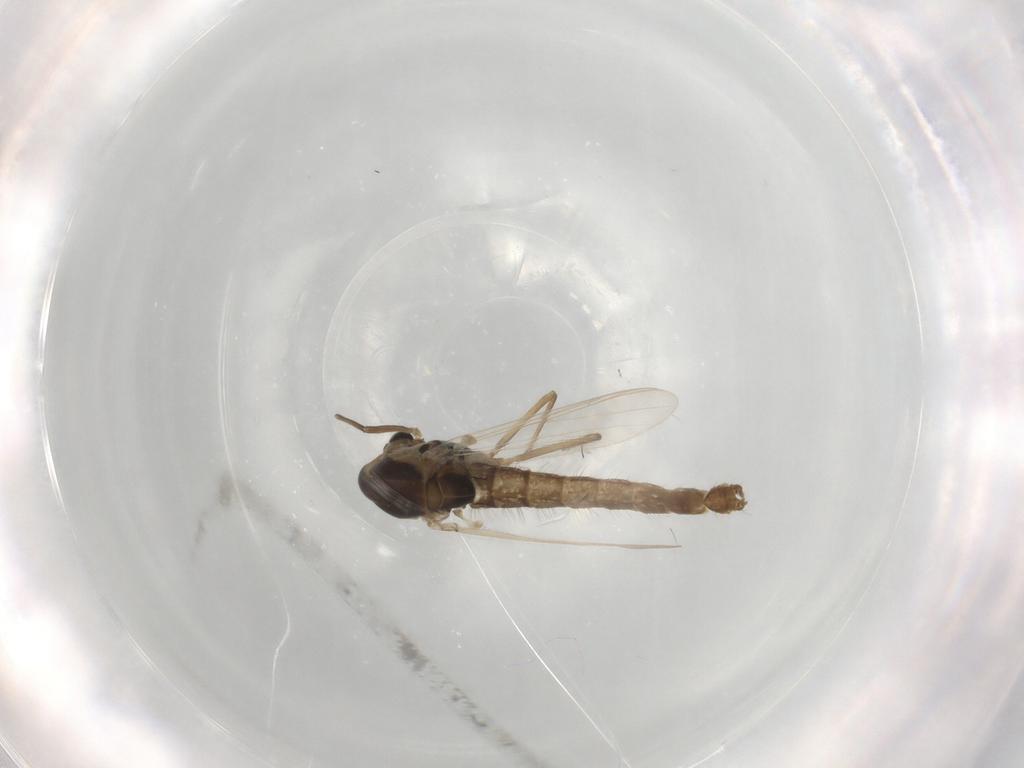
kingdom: Animalia
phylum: Arthropoda
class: Insecta
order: Diptera
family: Chironomidae
